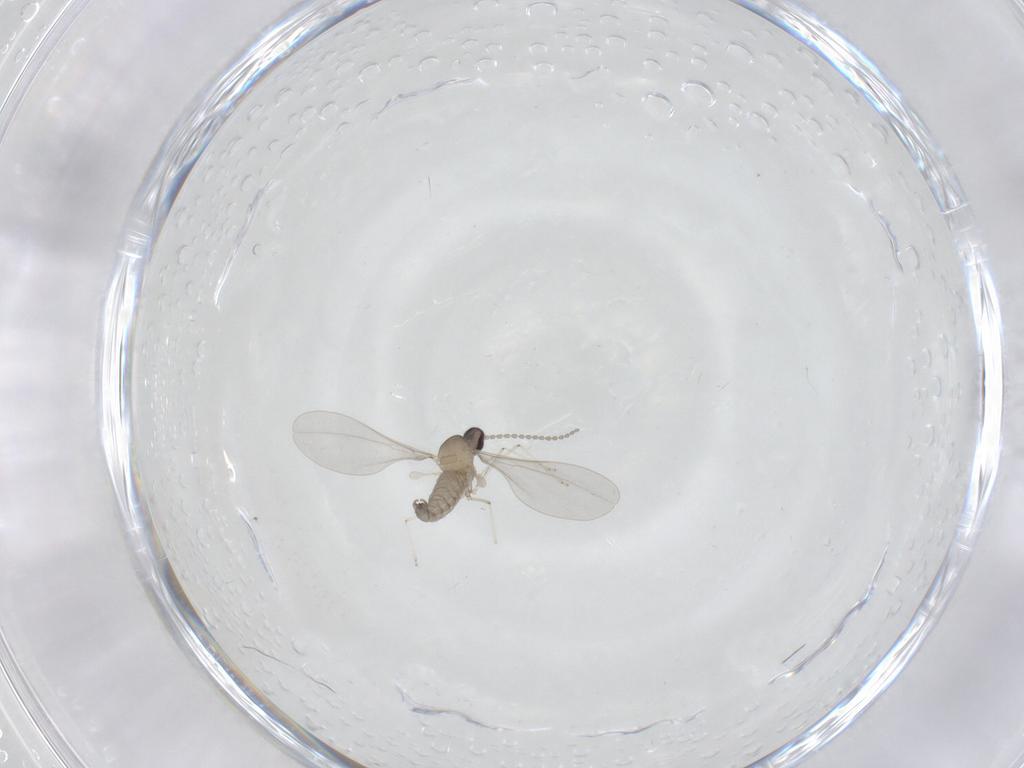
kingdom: Animalia
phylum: Arthropoda
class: Insecta
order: Diptera
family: Cecidomyiidae
